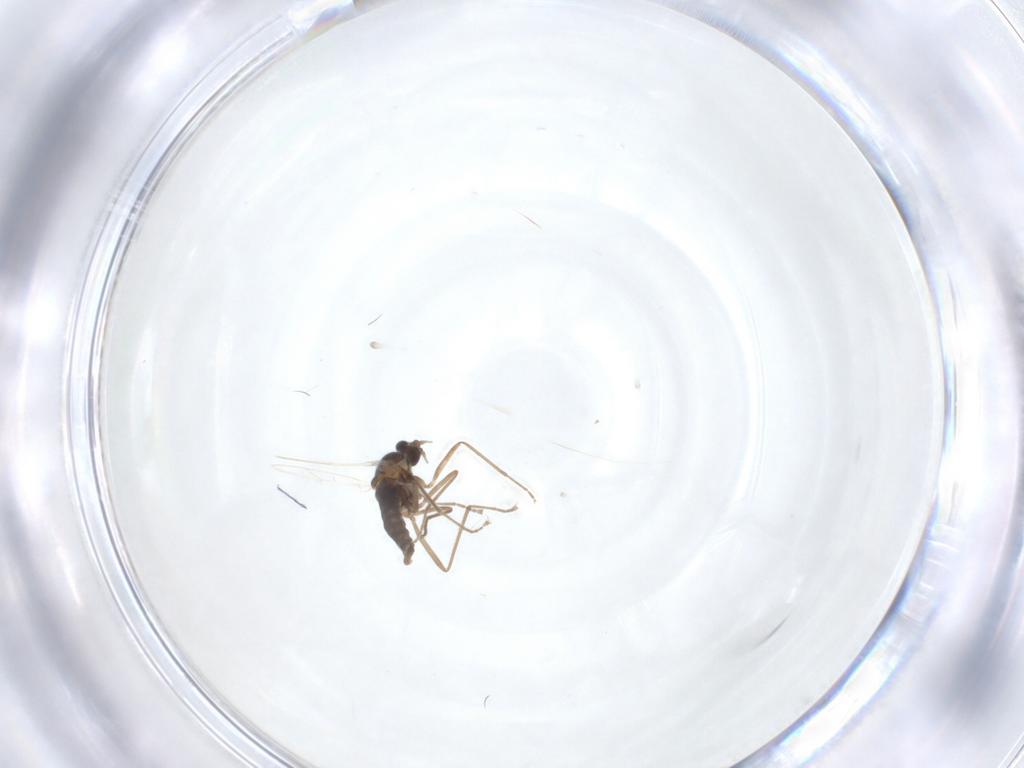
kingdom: Animalia
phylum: Arthropoda
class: Insecta
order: Diptera
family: Cecidomyiidae
